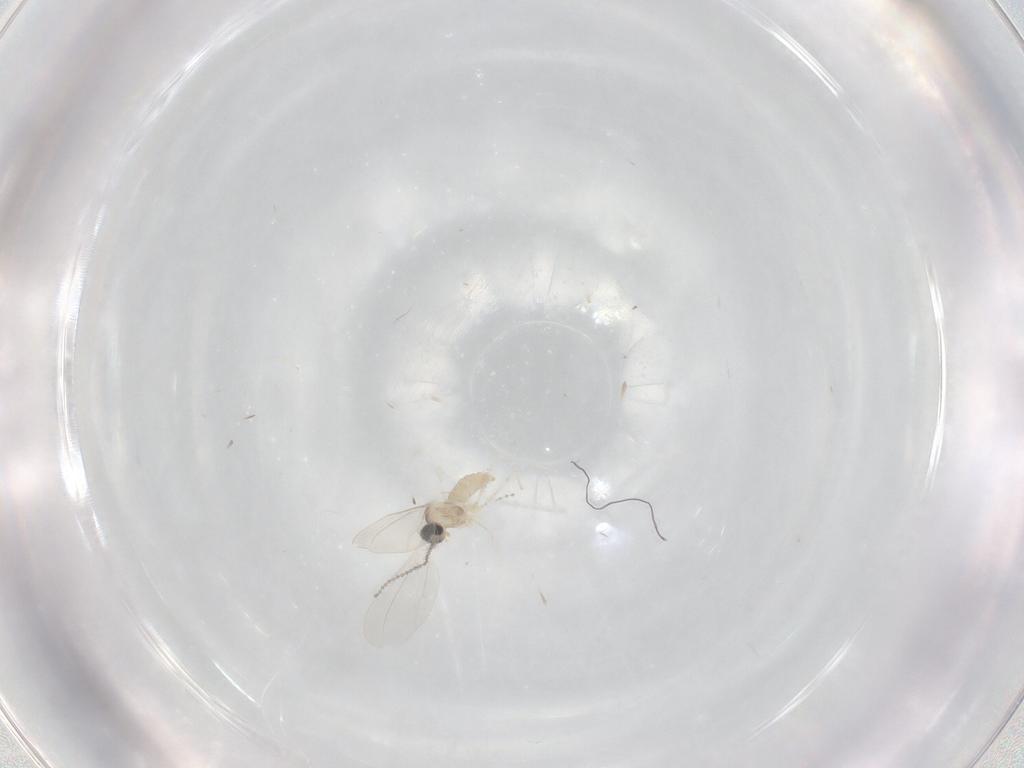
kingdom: Animalia
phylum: Arthropoda
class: Insecta
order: Diptera
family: Cecidomyiidae
